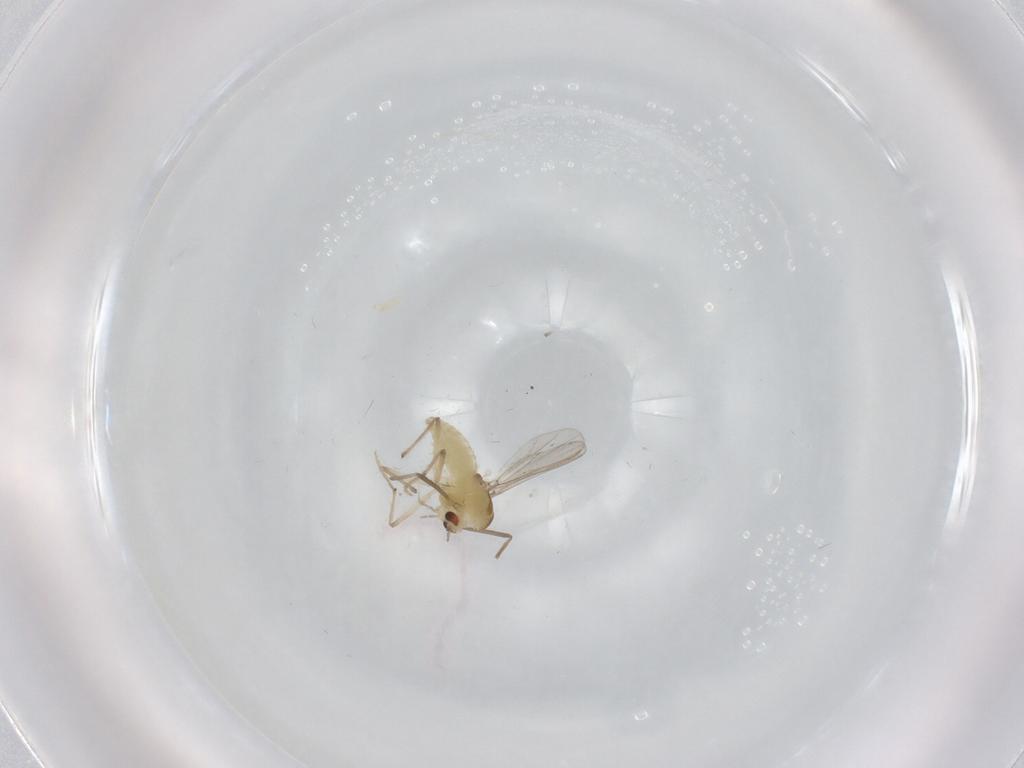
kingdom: Animalia
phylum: Arthropoda
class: Insecta
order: Diptera
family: Chironomidae
